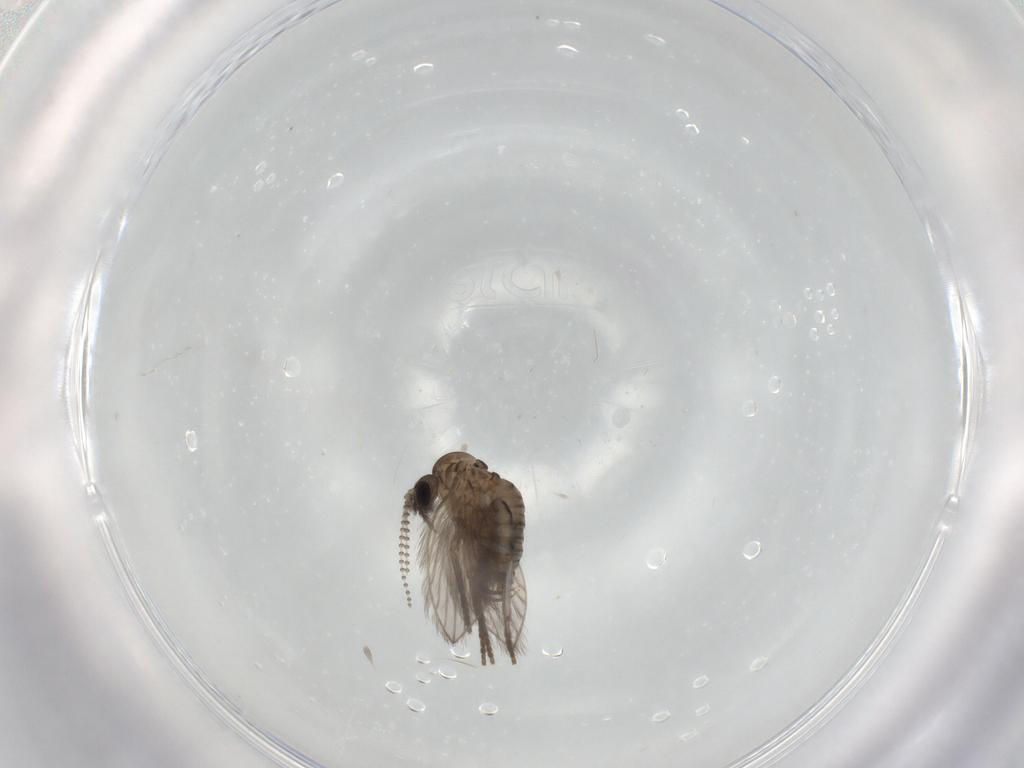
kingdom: Animalia
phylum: Arthropoda
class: Insecta
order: Diptera
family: Psychodidae
